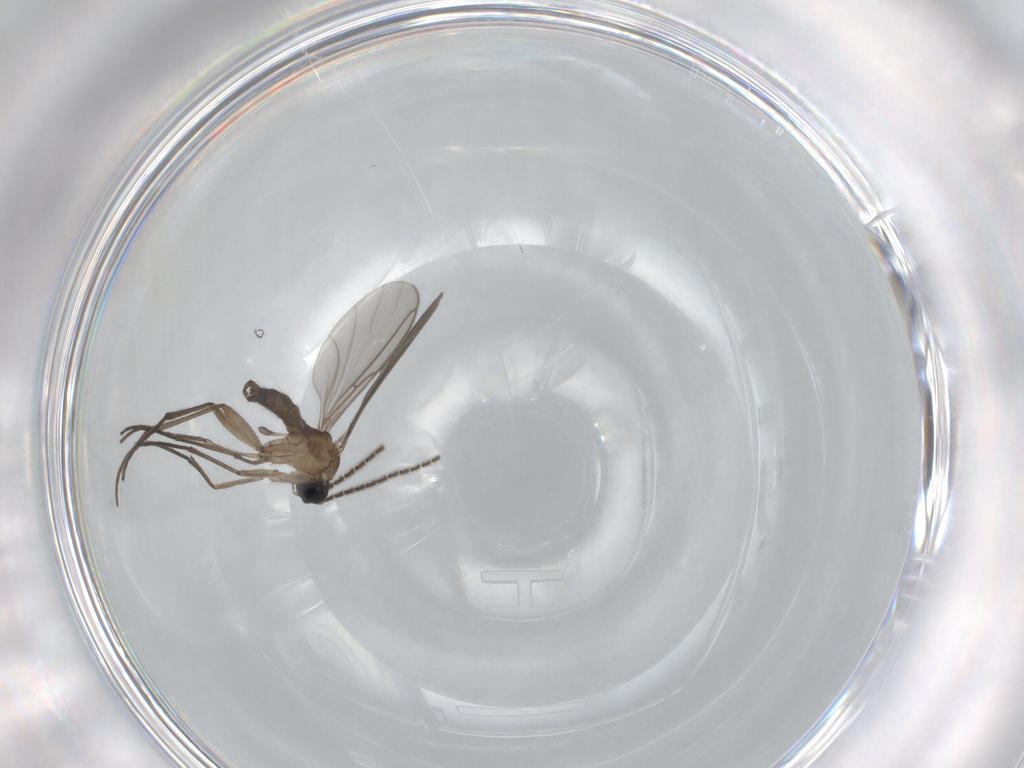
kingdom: Animalia
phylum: Arthropoda
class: Insecta
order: Diptera
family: Sciaridae
